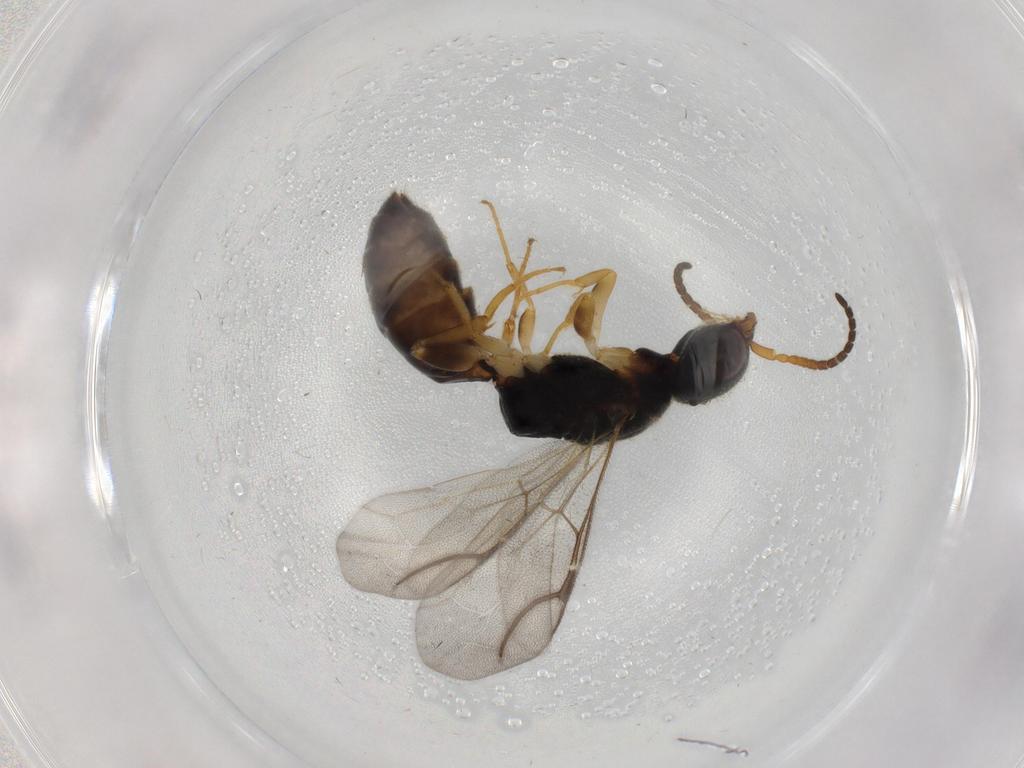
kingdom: Animalia
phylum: Arthropoda
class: Insecta
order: Hymenoptera
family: Bethylidae
